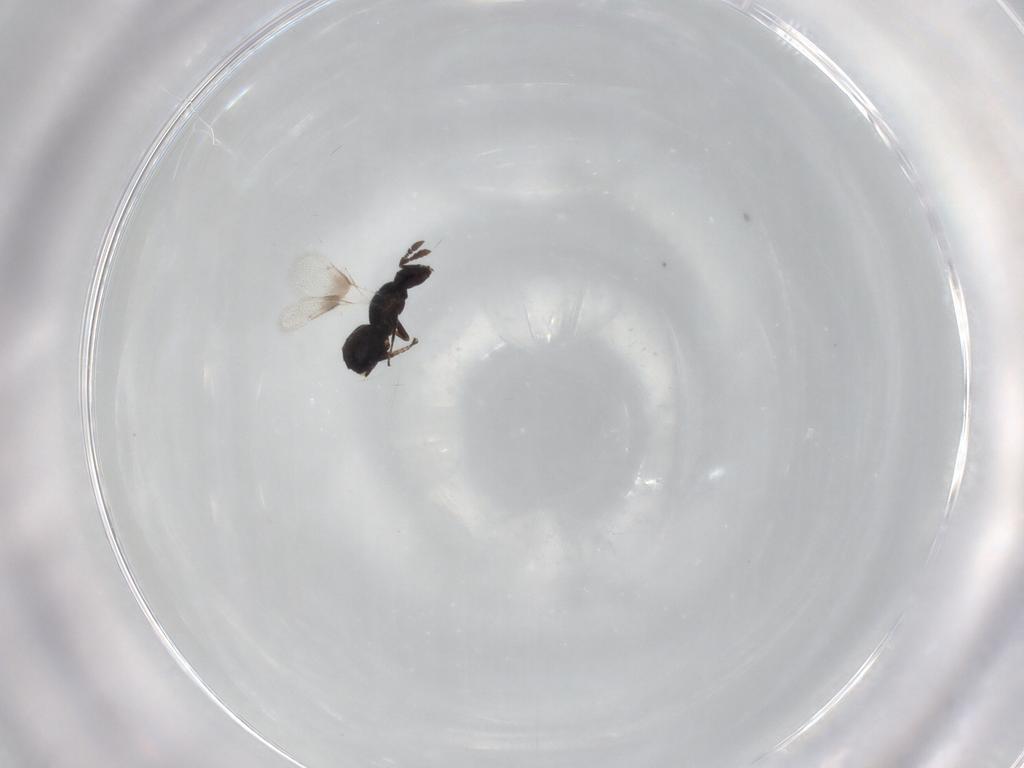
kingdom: Animalia
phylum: Arthropoda
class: Insecta
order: Hymenoptera
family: Pirenidae
